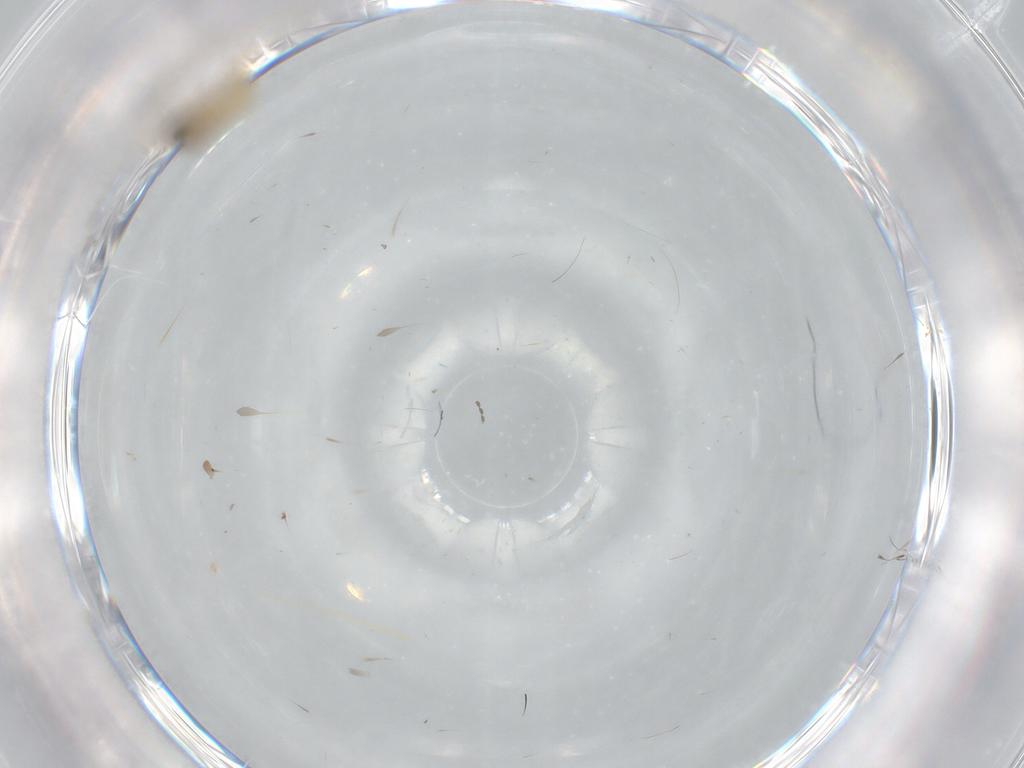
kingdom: Animalia
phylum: Arthropoda
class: Insecta
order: Diptera
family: Cecidomyiidae
